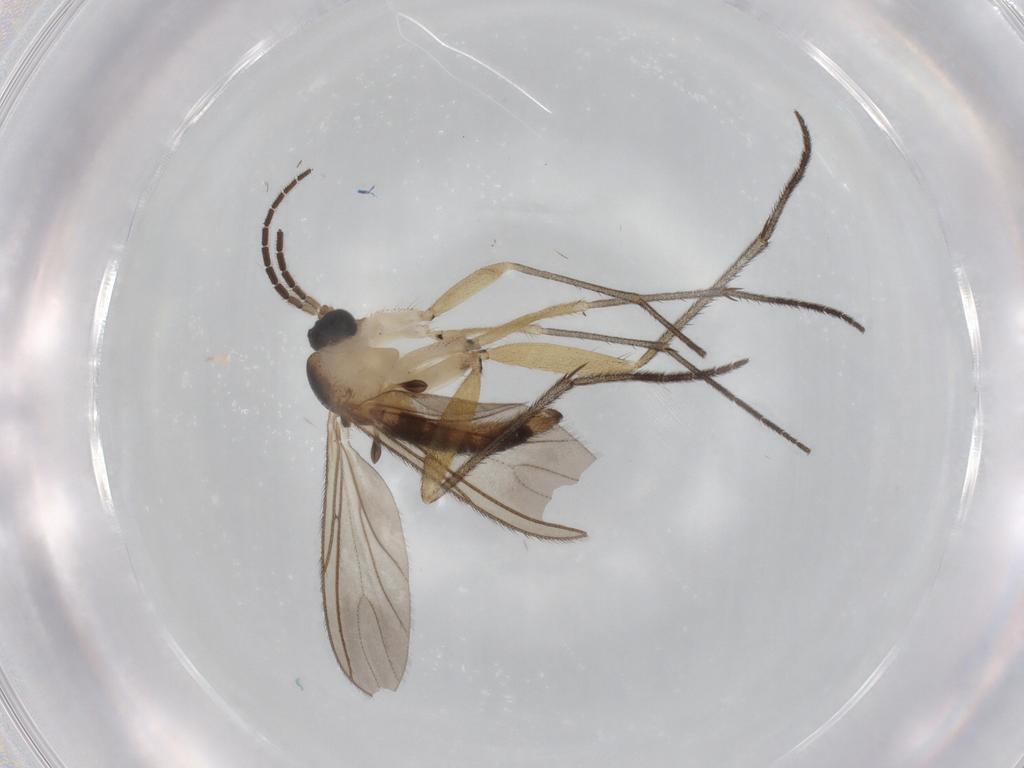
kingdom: Animalia
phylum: Arthropoda
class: Insecta
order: Diptera
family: Sciaridae
